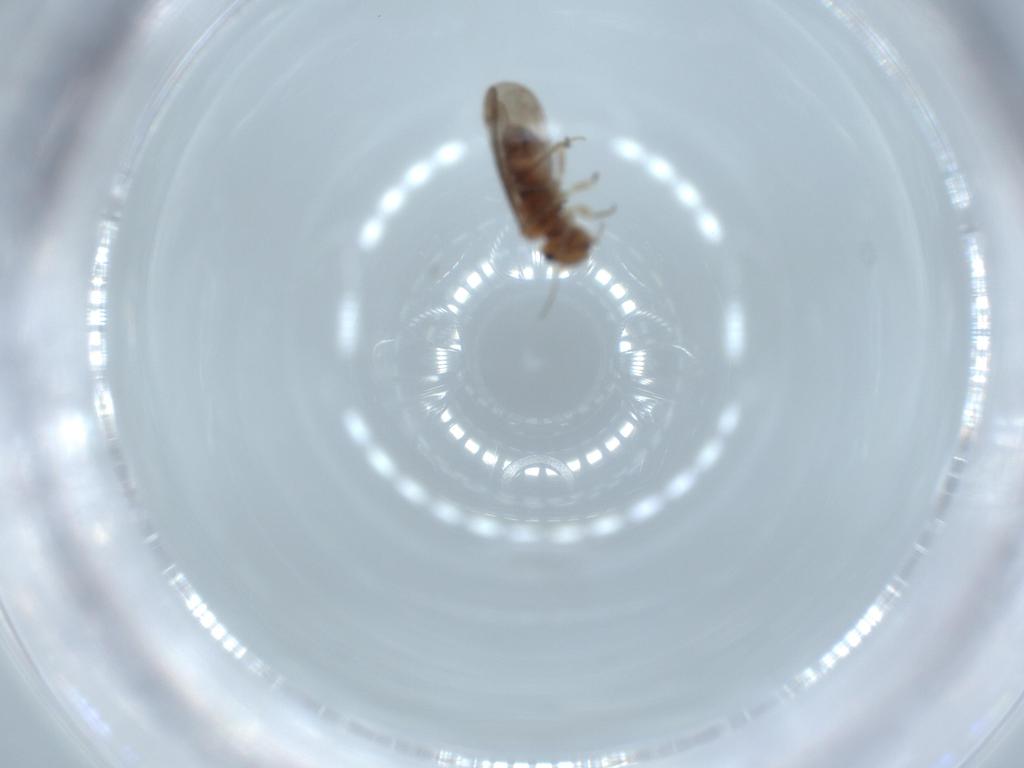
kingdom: Animalia
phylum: Arthropoda
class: Insecta
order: Psocodea
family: Ectopsocidae
